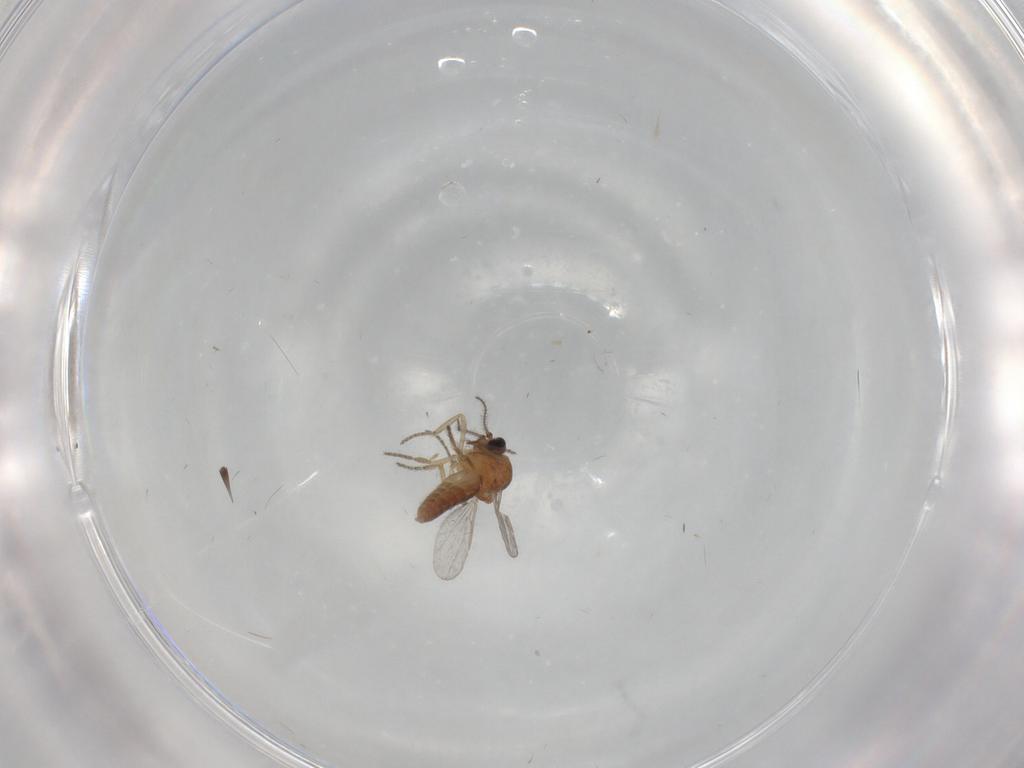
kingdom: Animalia
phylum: Arthropoda
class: Insecta
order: Diptera
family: Ceratopogonidae
